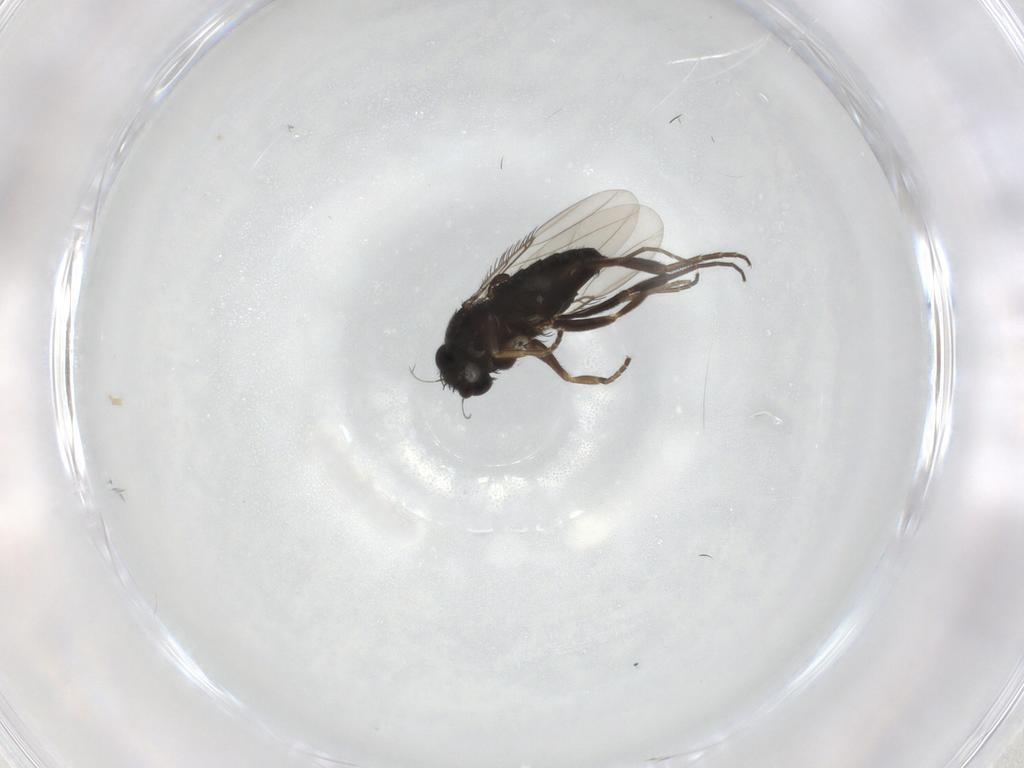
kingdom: Animalia
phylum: Arthropoda
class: Insecta
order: Diptera
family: Phoridae
